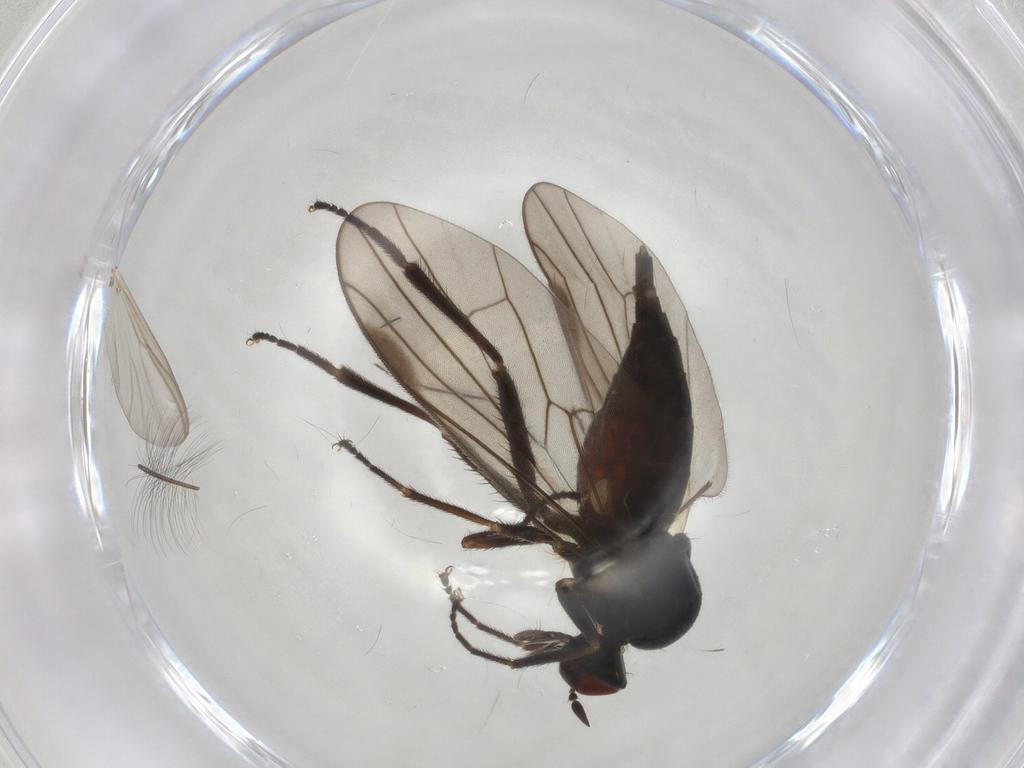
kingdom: Animalia
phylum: Arthropoda
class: Insecta
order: Diptera
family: Hybotidae
